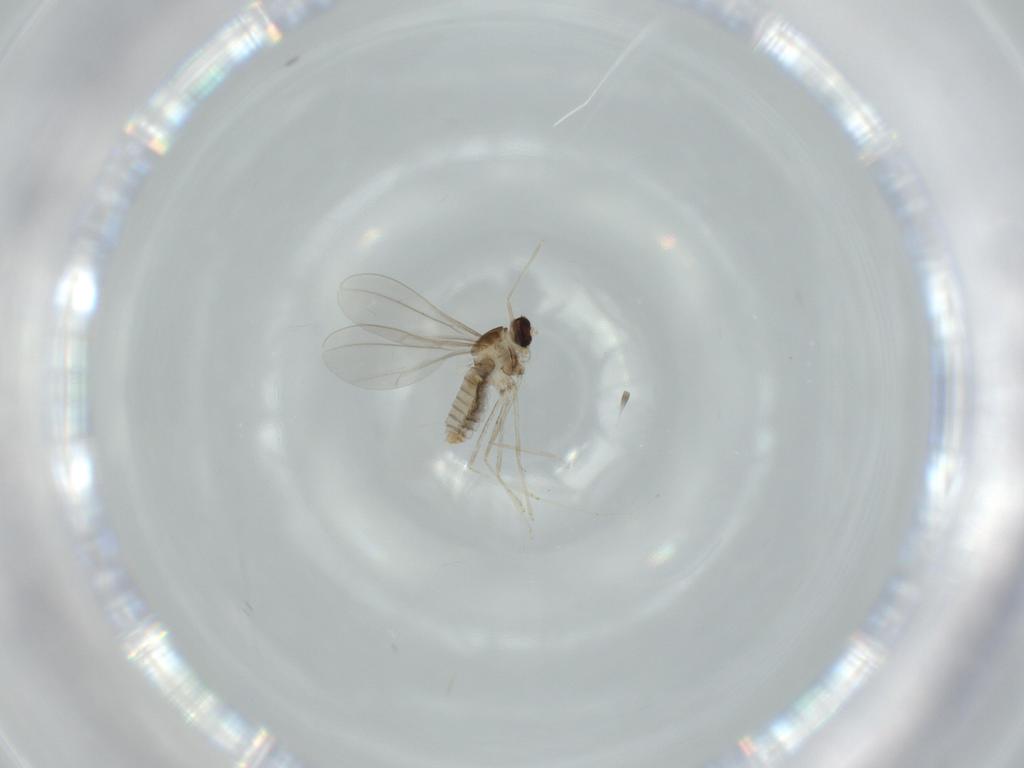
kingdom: Animalia
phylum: Arthropoda
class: Insecta
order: Diptera
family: Cecidomyiidae
